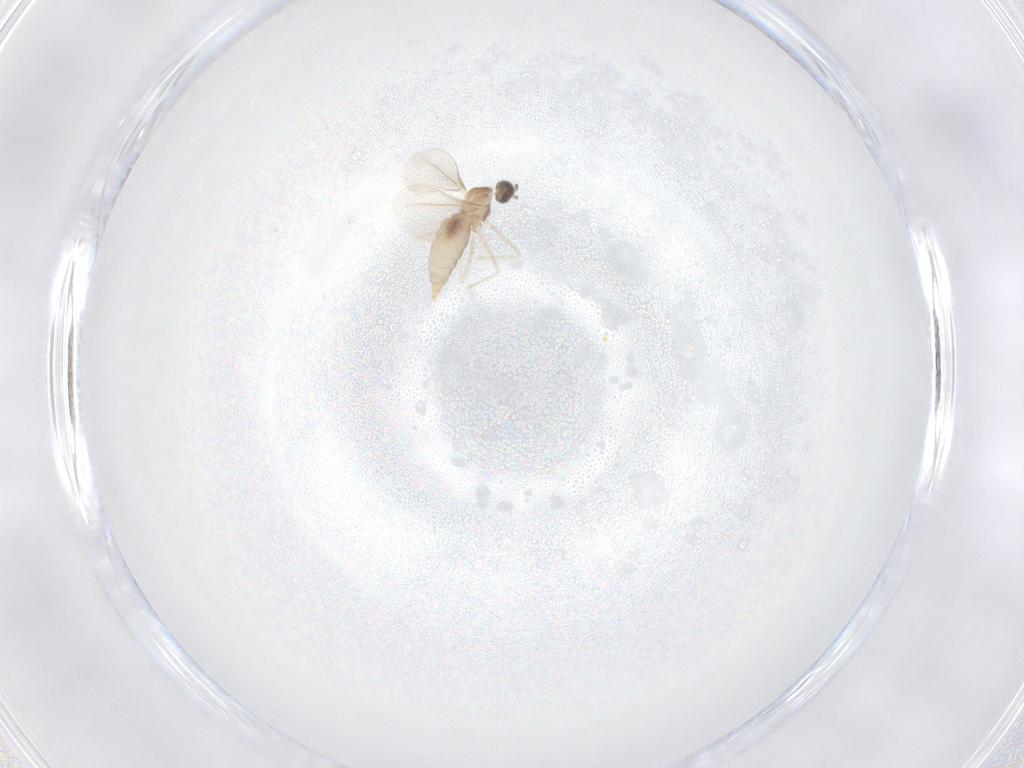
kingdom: Animalia
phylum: Arthropoda
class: Insecta
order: Diptera
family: Cecidomyiidae
